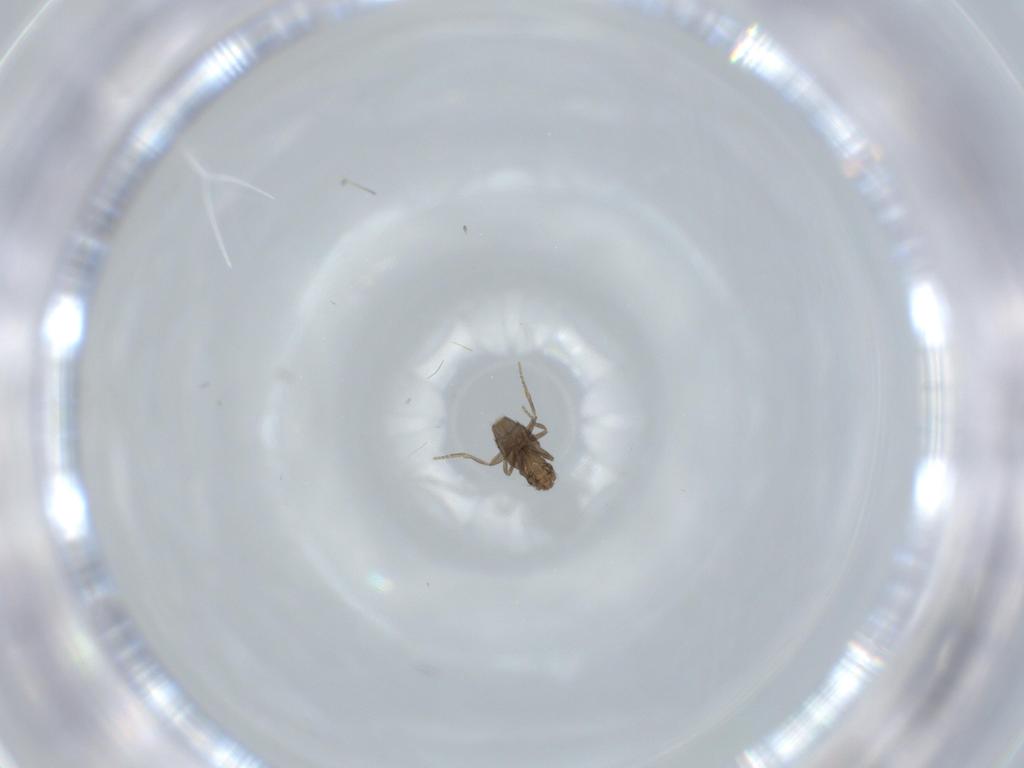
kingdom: Animalia
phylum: Arthropoda
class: Insecta
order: Diptera
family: Phoridae
